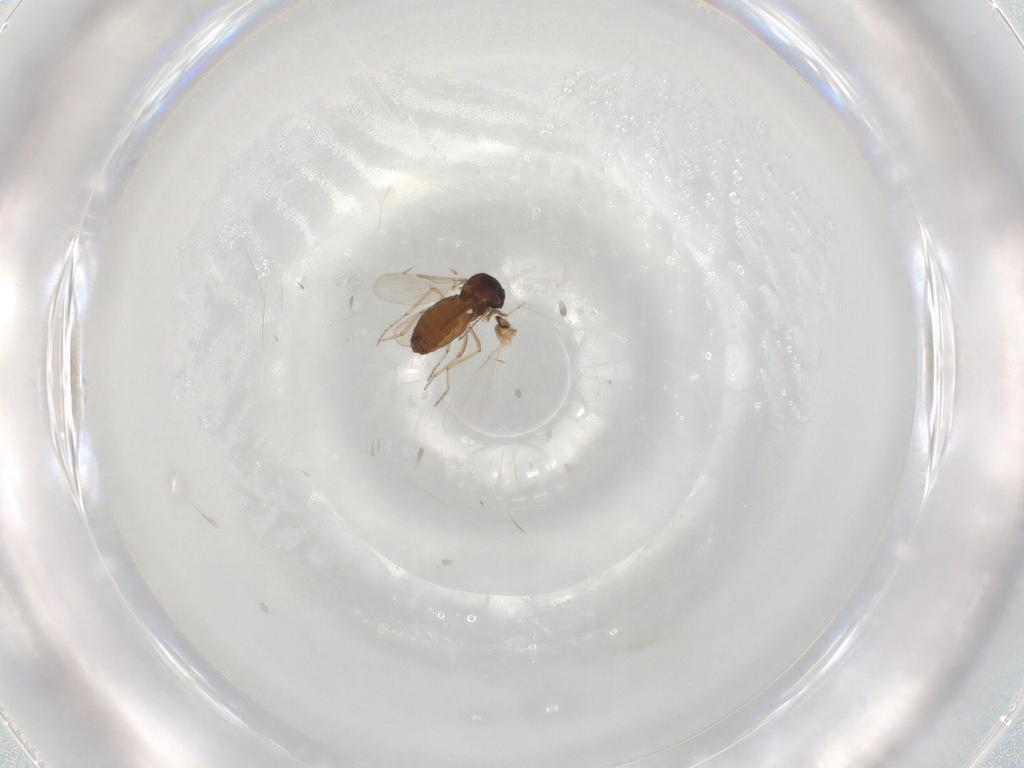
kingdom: Animalia
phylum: Arthropoda
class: Insecta
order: Diptera
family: Ceratopogonidae
